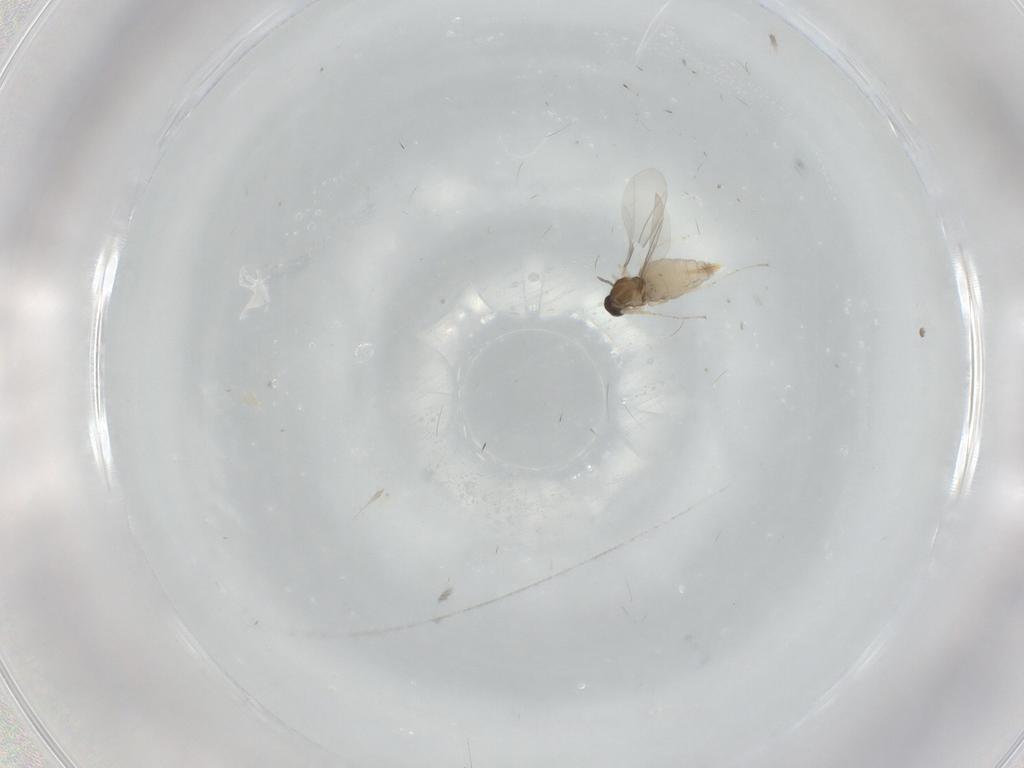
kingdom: Animalia
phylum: Arthropoda
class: Insecta
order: Diptera
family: Cecidomyiidae
